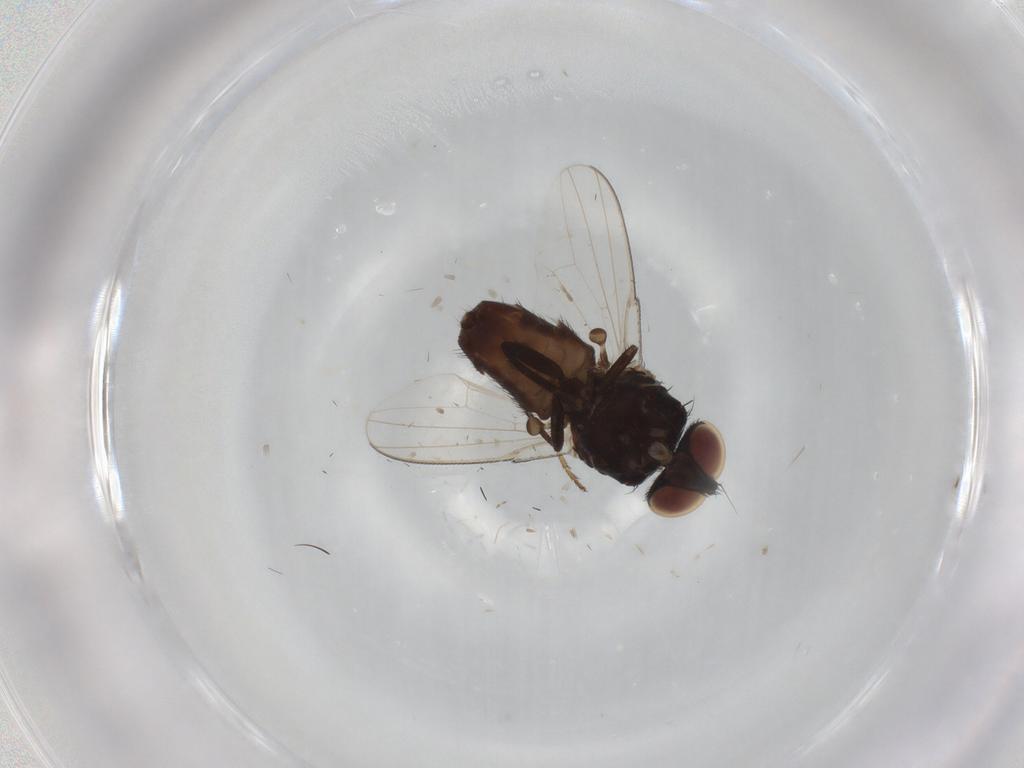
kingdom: Animalia
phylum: Arthropoda
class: Insecta
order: Diptera
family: Milichiidae
